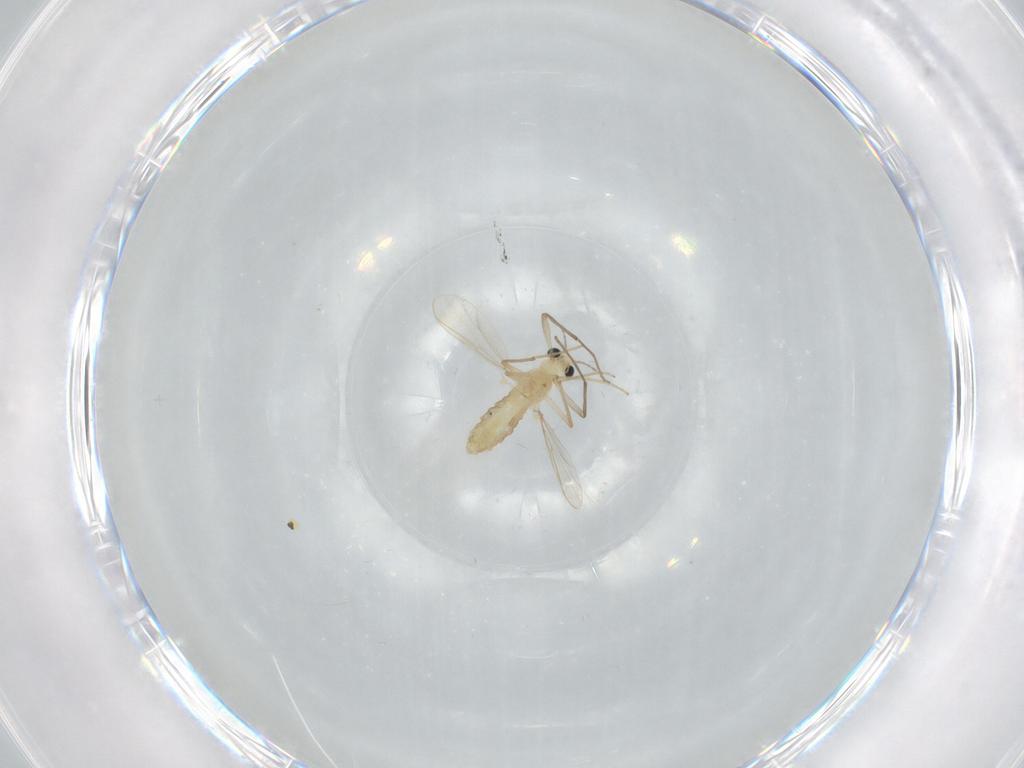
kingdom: Animalia
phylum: Arthropoda
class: Insecta
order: Diptera
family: Chironomidae
